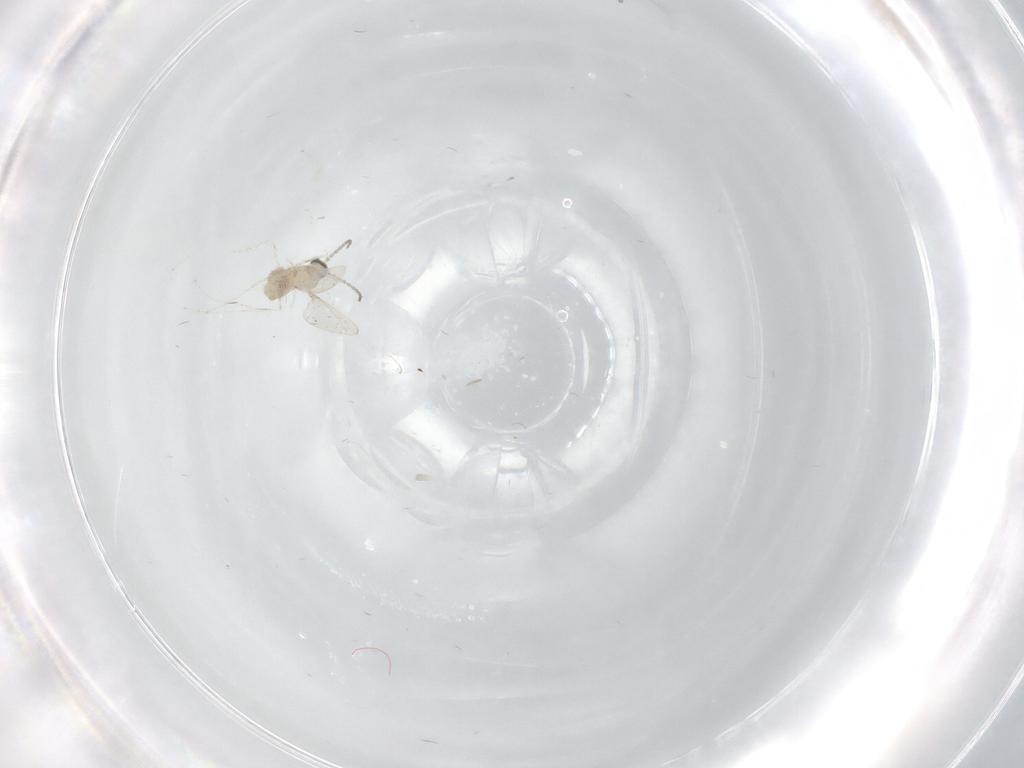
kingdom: Animalia
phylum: Arthropoda
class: Insecta
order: Diptera
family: Cecidomyiidae
